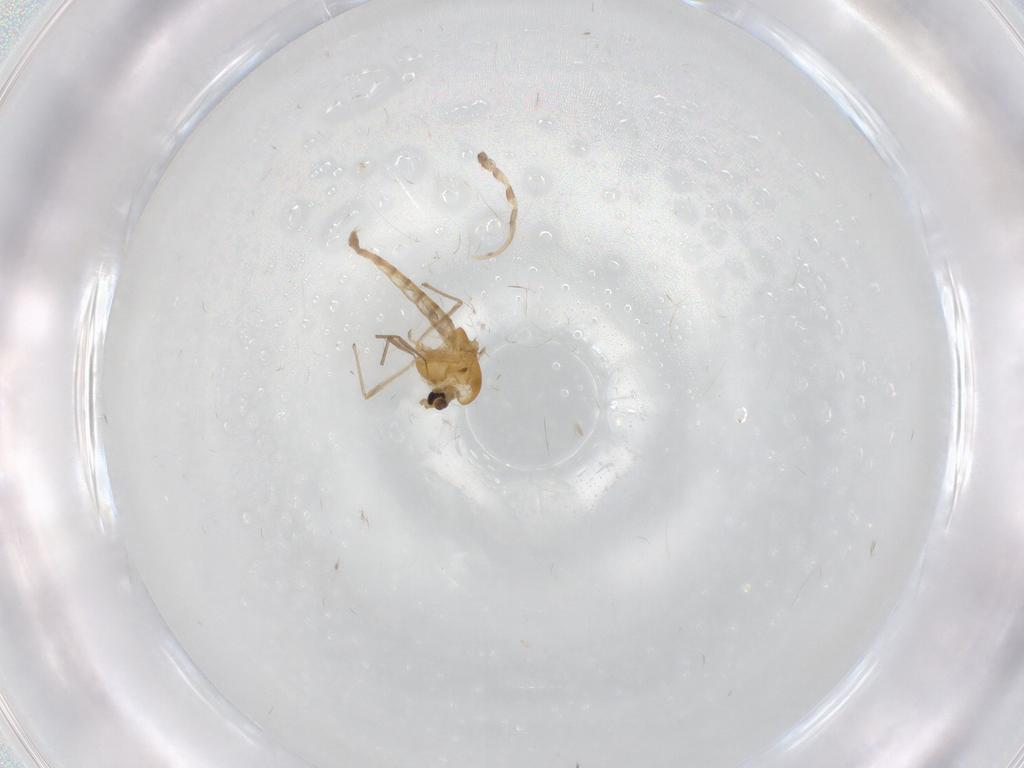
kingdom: Animalia
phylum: Arthropoda
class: Insecta
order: Diptera
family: Chironomidae
